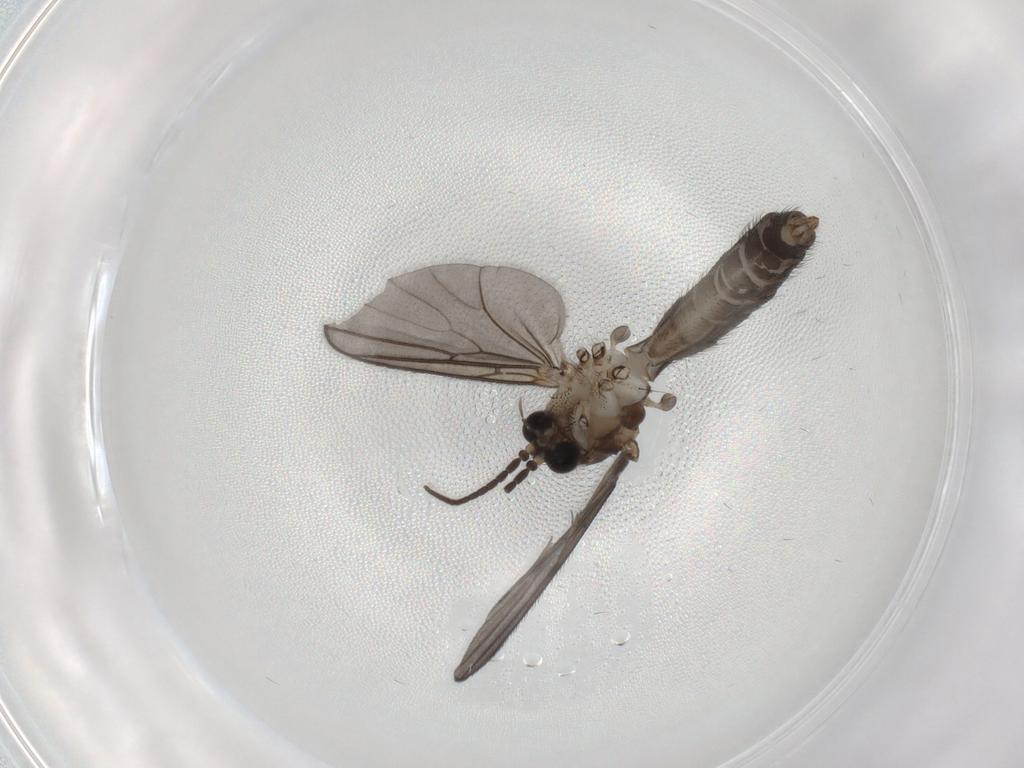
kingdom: Animalia
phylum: Arthropoda
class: Insecta
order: Diptera
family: Mycetophilidae
